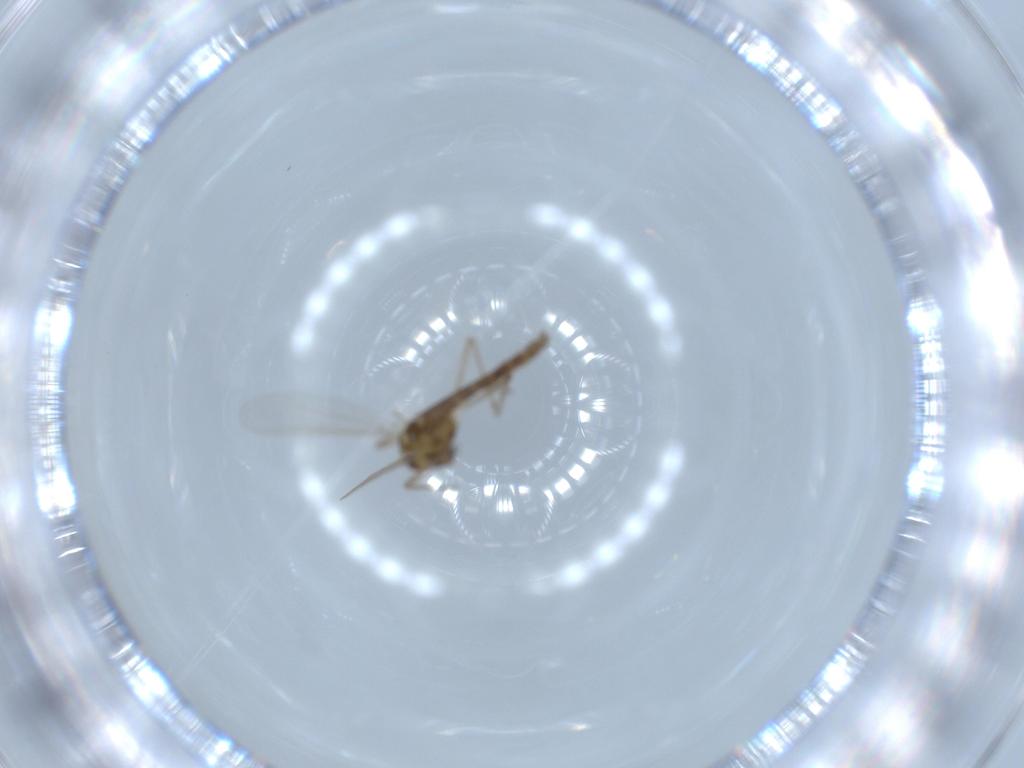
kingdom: Animalia
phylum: Arthropoda
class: Insecta
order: Diptera
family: Chironomidae
